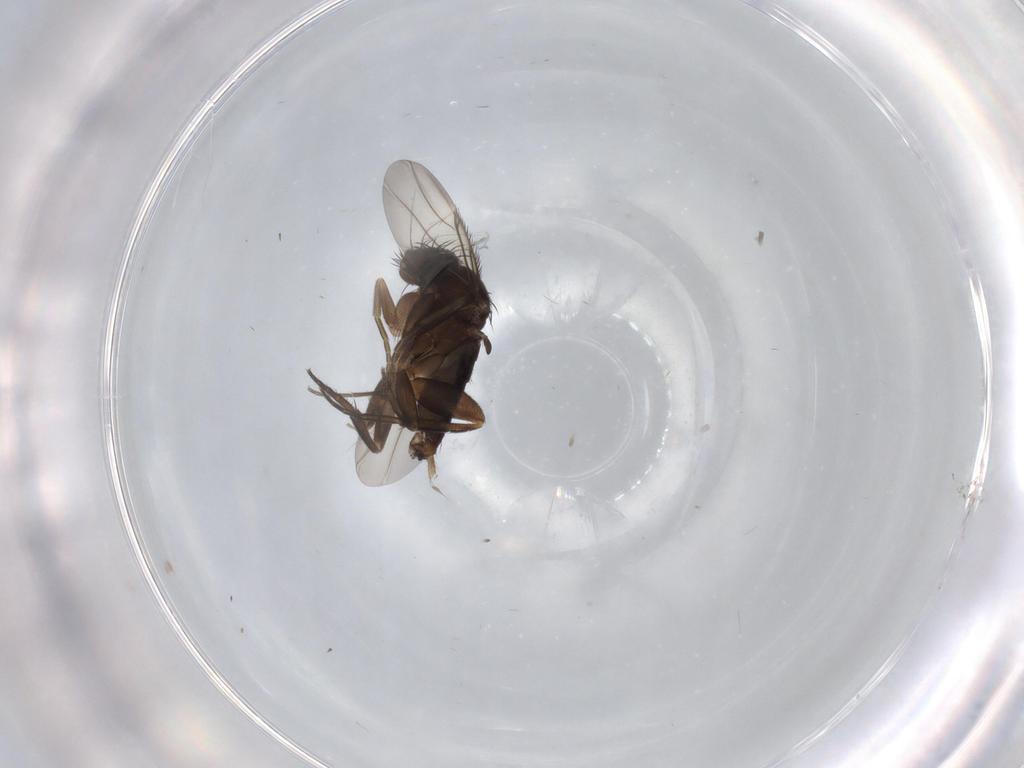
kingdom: Animalia
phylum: Arthropoda
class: Insecta
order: Diptera
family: Phoridae
